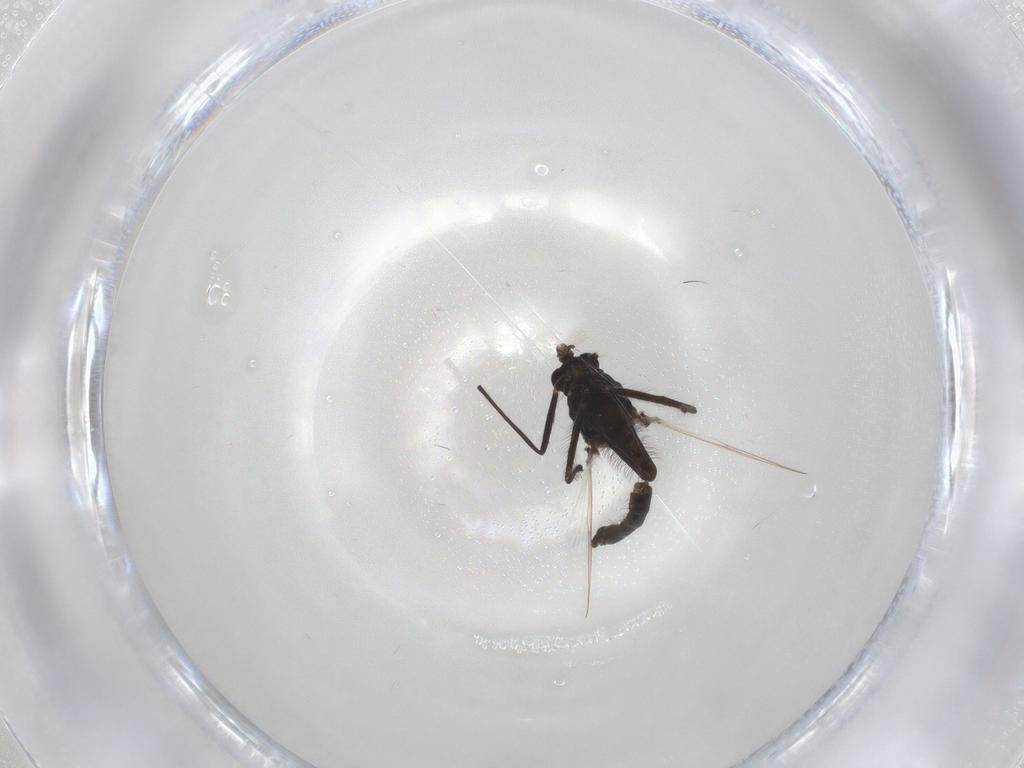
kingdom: Animalia
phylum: Arthropoda
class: Insecta
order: Diptera
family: Chironomidae
